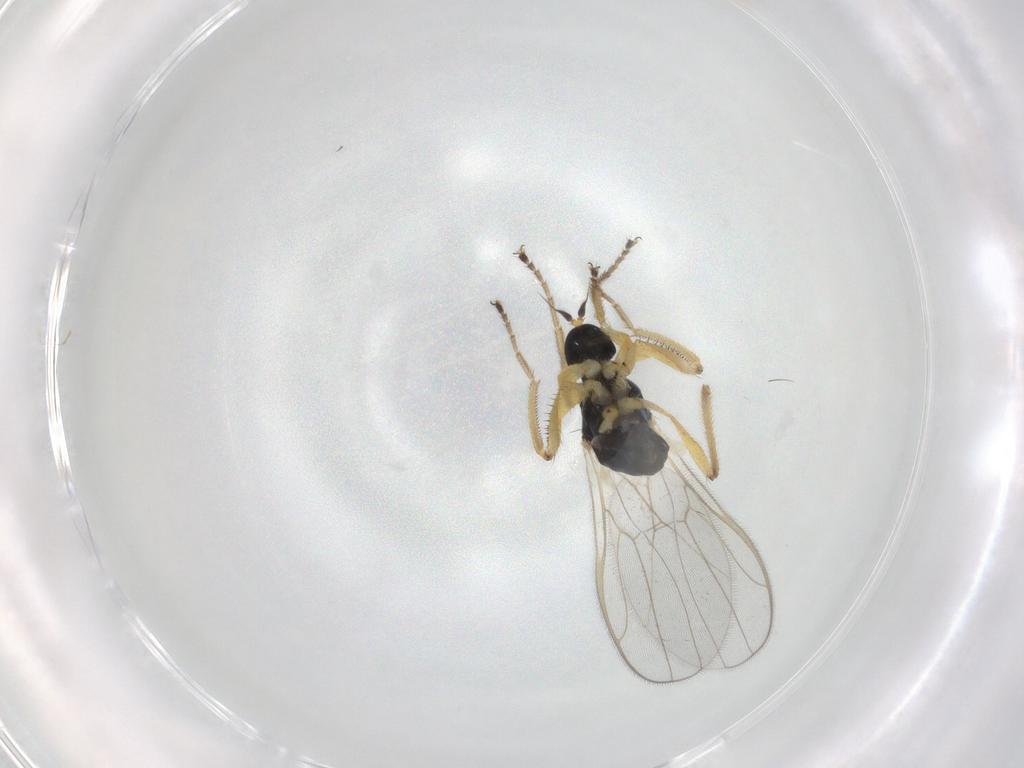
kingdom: Animalia
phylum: Arthropoda
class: Insecta
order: Diptera
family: Hybotidae
